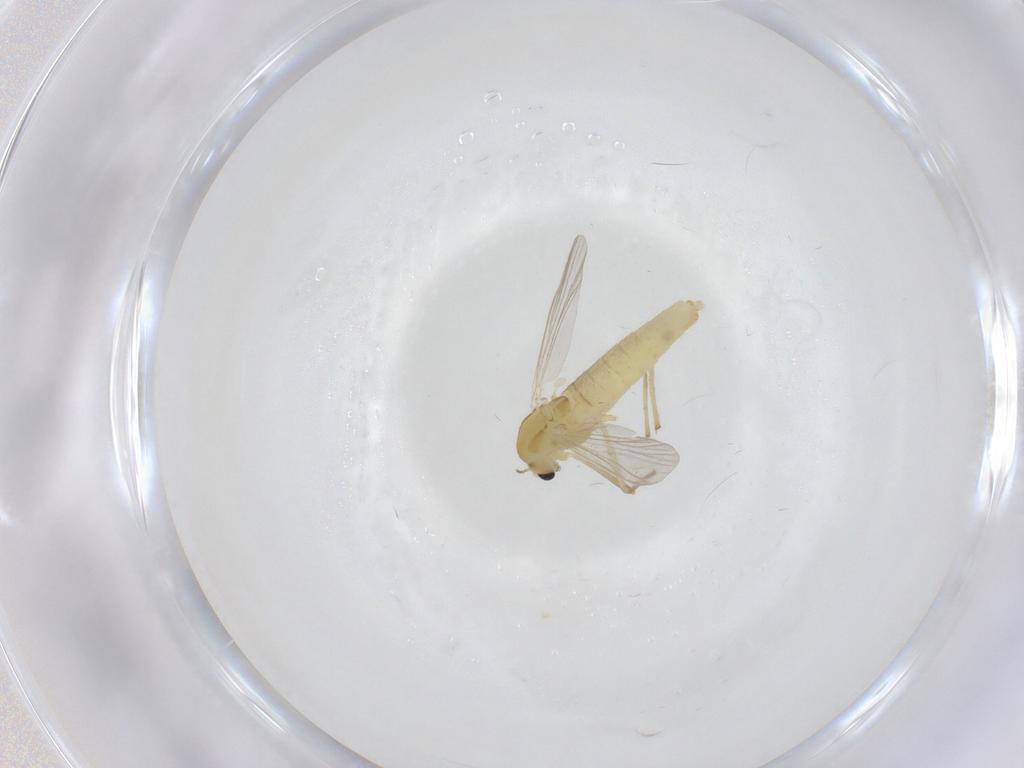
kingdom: Animalia
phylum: Arthropoda
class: Insecta
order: Diptera
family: Chironomidae
